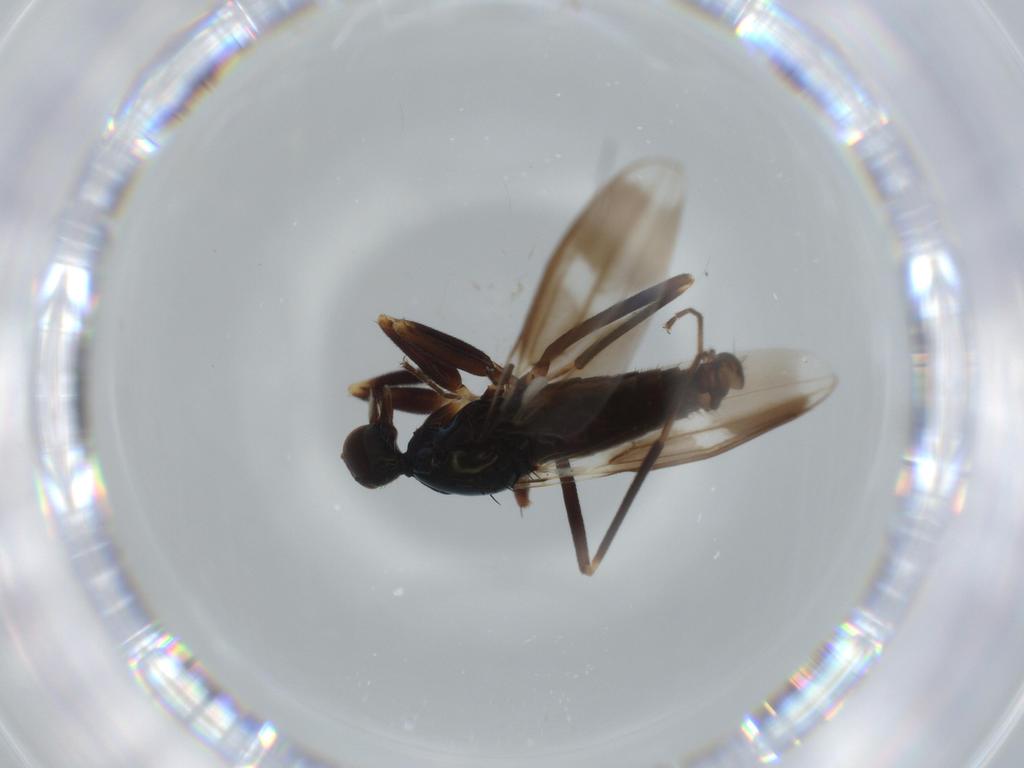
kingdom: Animalia
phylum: Arthropoda
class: Insecta
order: Diptera
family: Hybotidae
